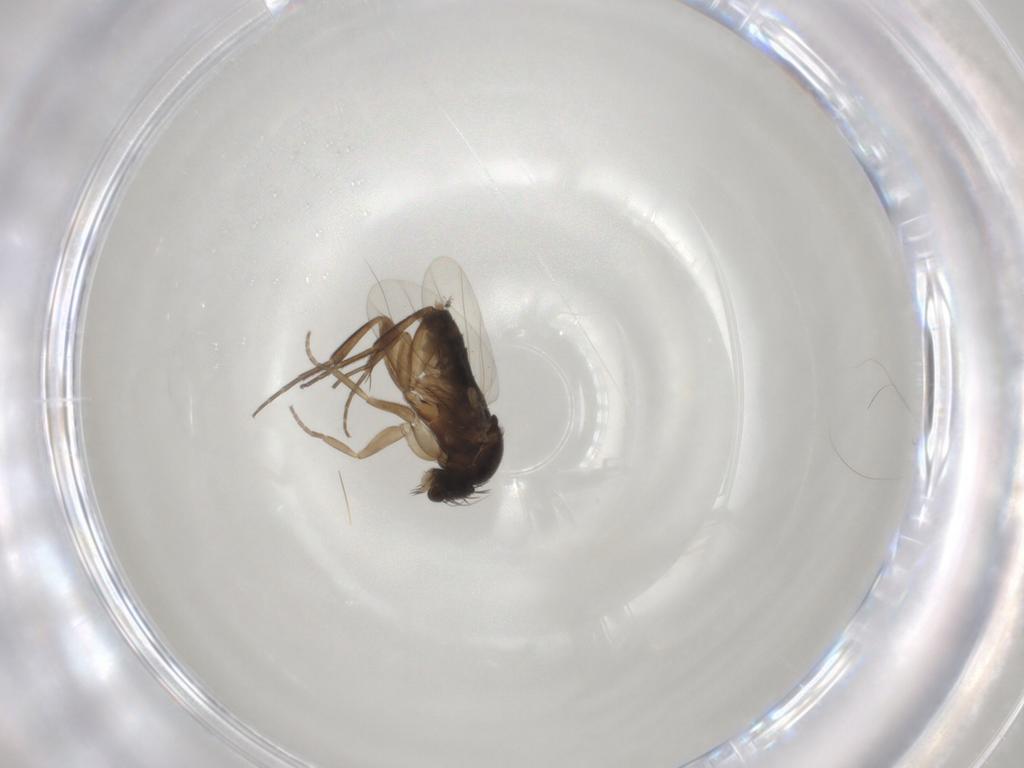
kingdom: Animalia
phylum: Arthropoda
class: Insecta
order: Diptera
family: Phoridae
